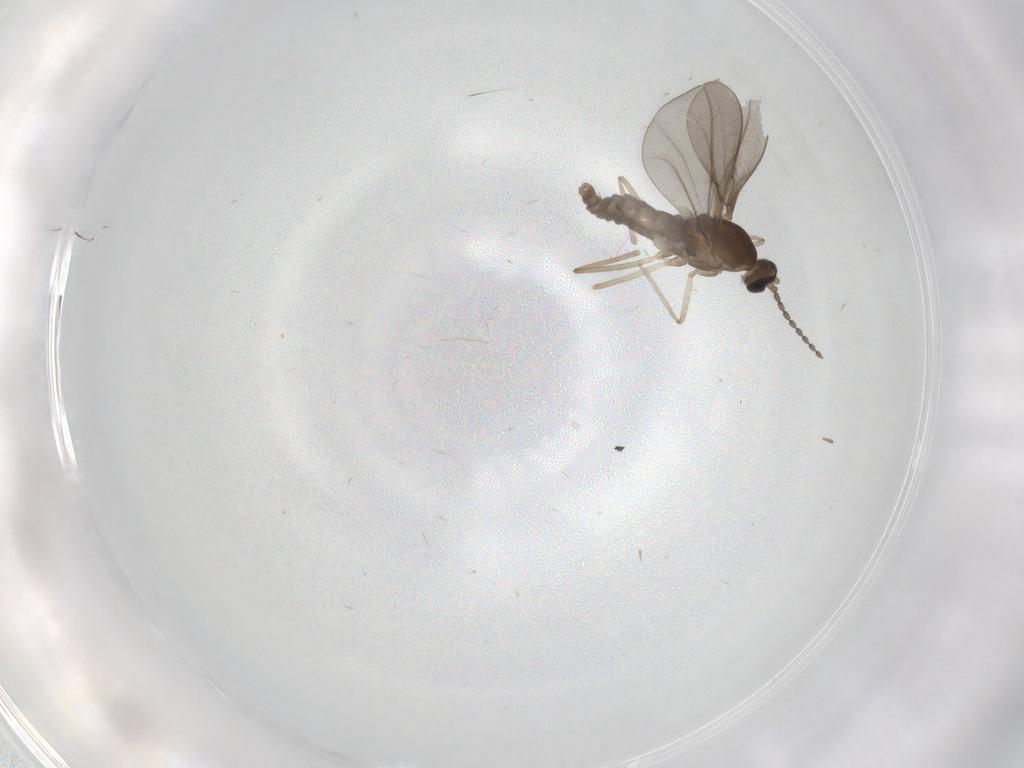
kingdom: Animalia
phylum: Arthropoda
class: Insecta
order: Diptera
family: Cecidomyiidae
